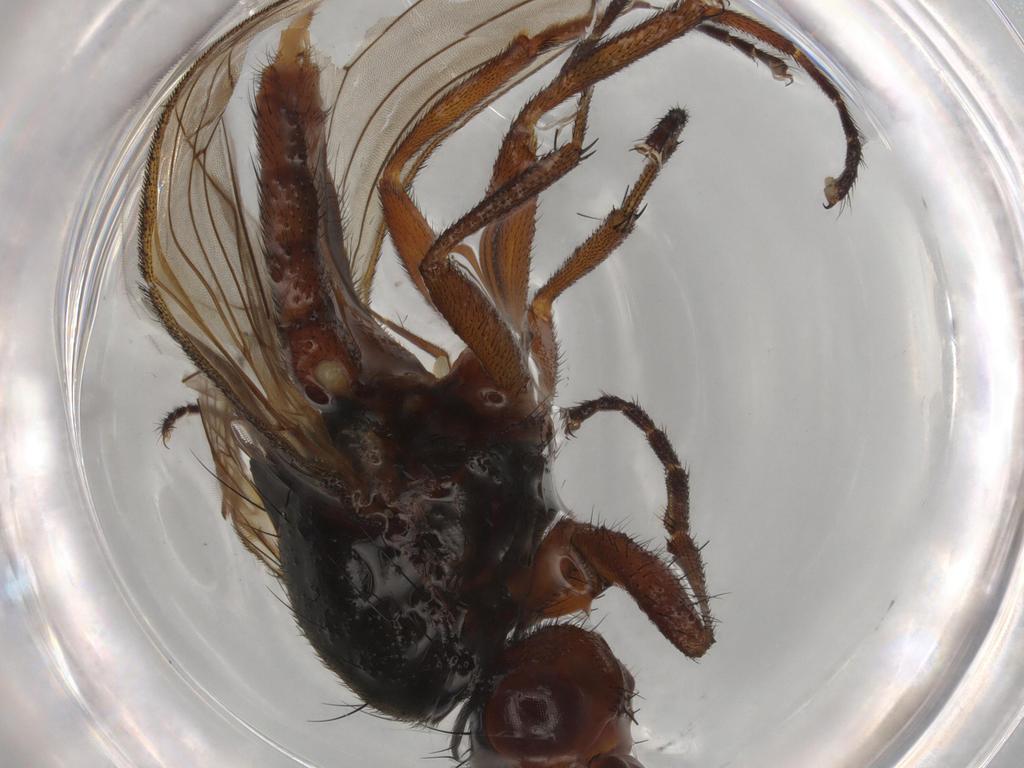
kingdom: Animalia
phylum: Arthropoda
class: Insecta
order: Diptera
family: Heleomyzidae
